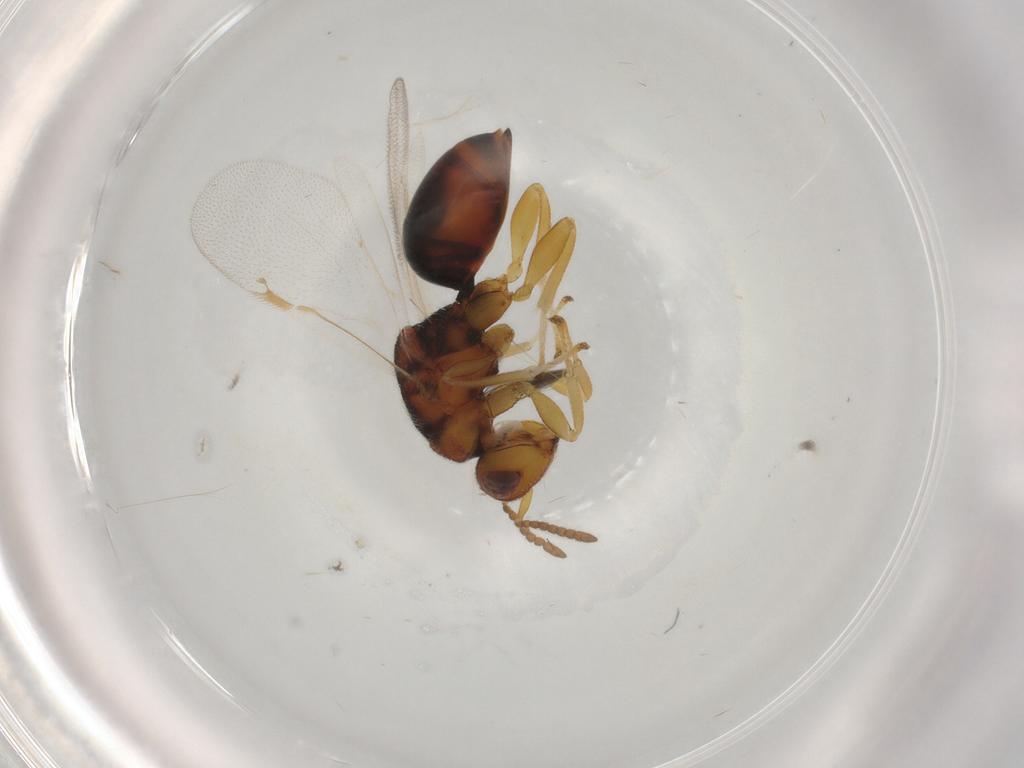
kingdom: Animalia
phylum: Arthropoda
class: Insecta
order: Hymenoptera
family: Eurytomidae
